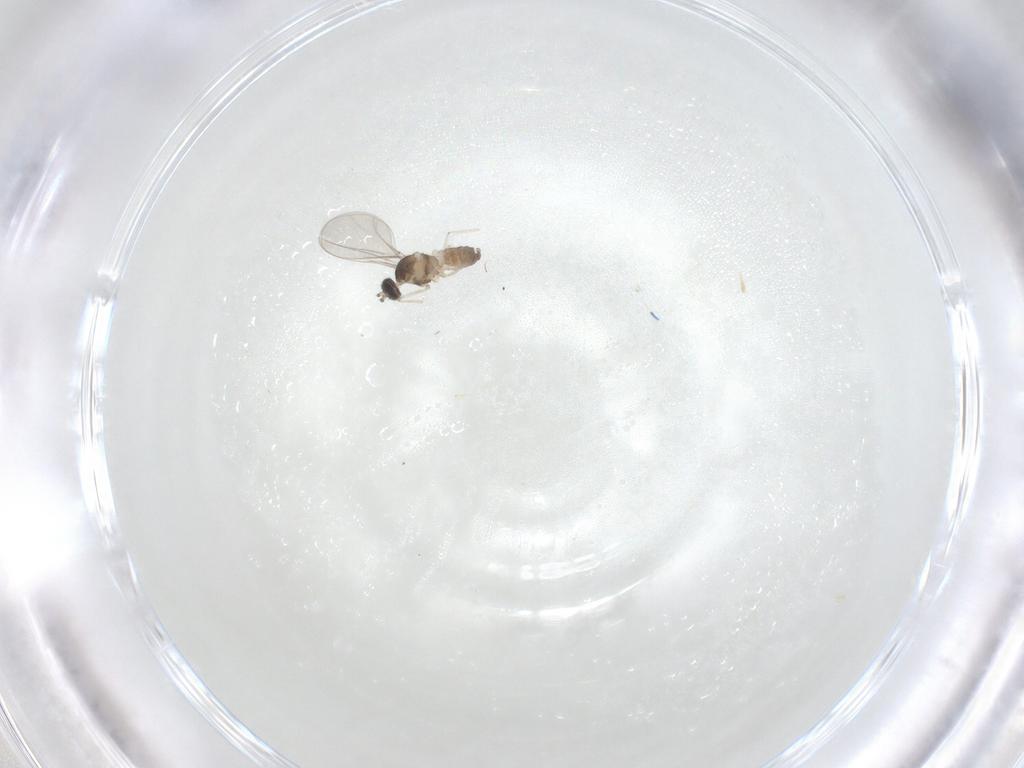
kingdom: Animalia
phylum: Arthropoda
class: Insecta
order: Diptera
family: Cecidomyiidae
